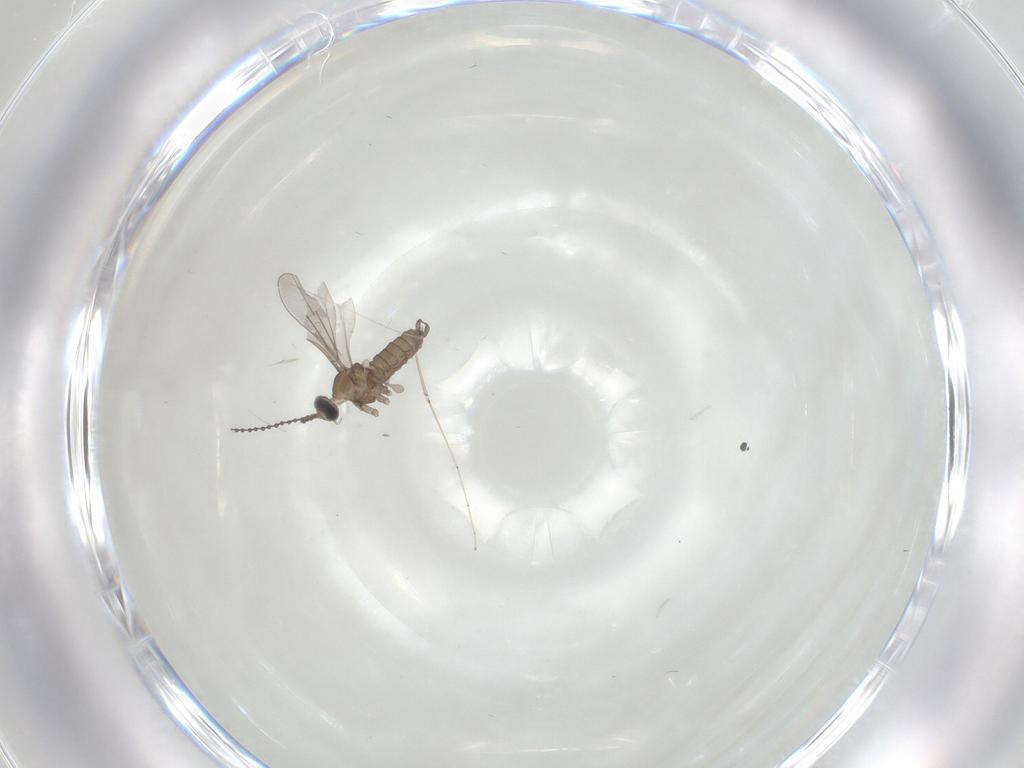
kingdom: Animalia
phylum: Arthropoda
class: Insecta
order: Diptera
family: Cecidomyiidae
